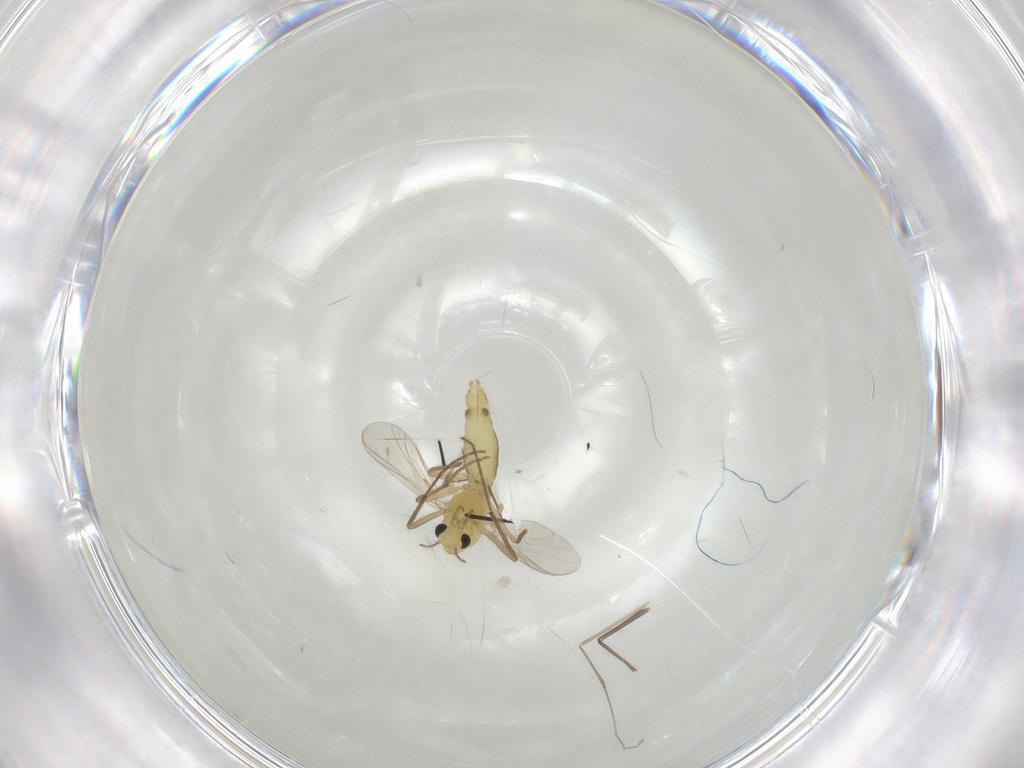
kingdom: Animalia
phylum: Arthropoda
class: Insecta
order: Diptera
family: Chironomidae
